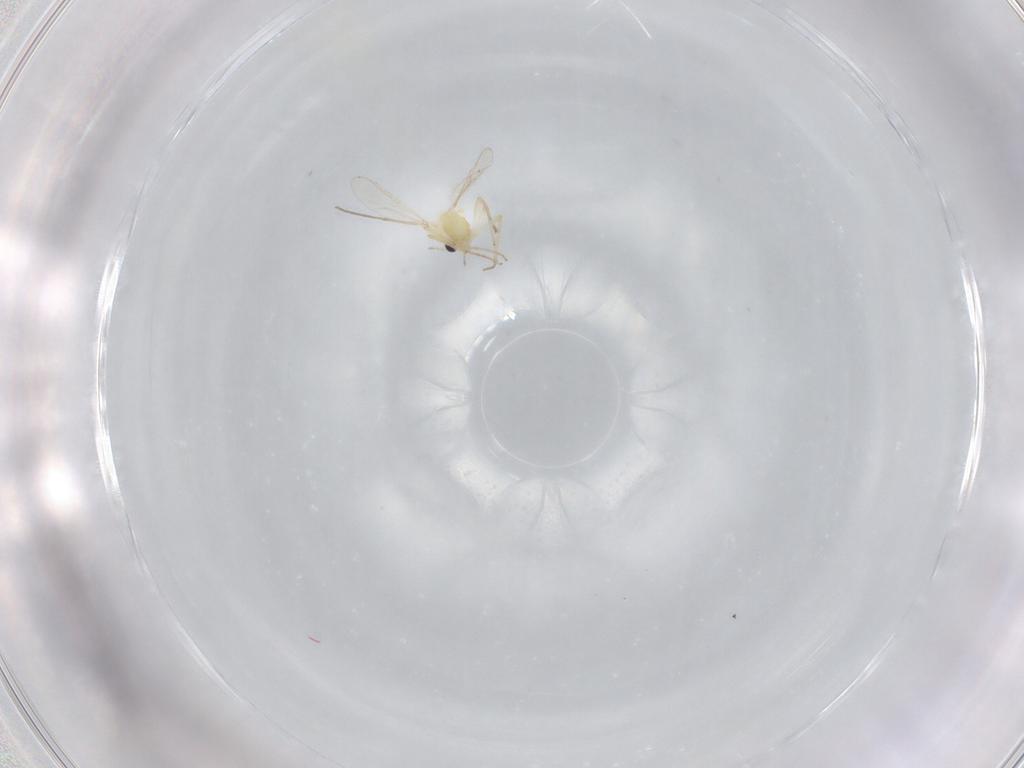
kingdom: Animalia
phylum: Arthropoda
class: Insecta
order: Diptera
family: Chironomidae
